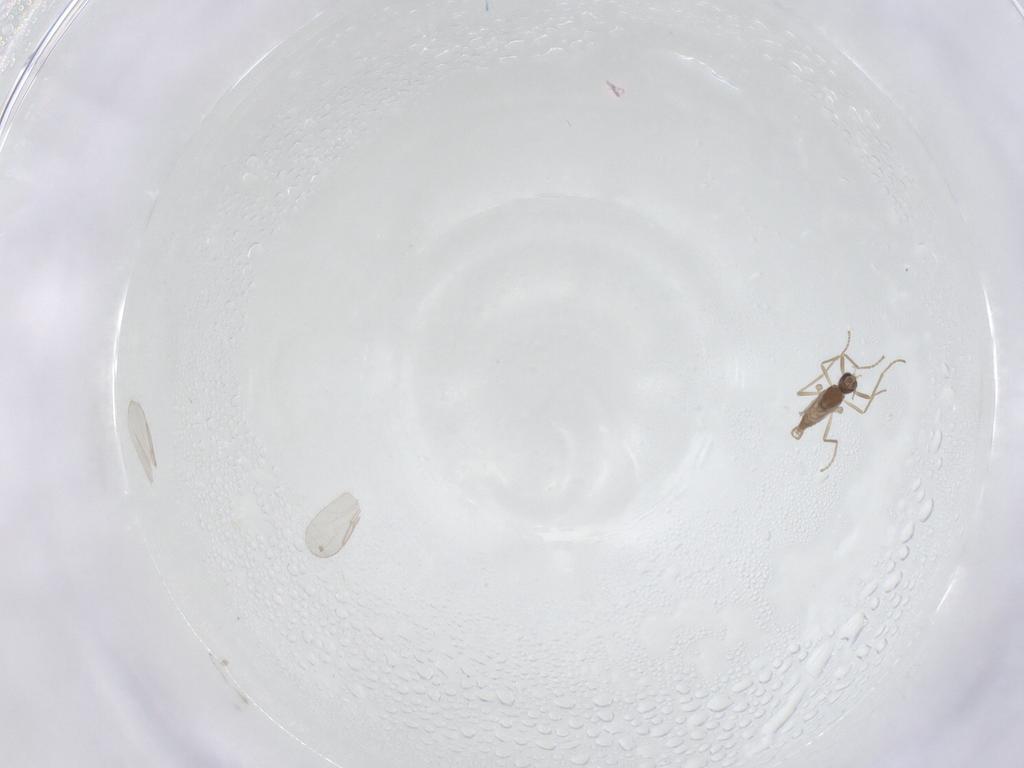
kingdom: Animalia
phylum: Arthropoda
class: Insecta
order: Diptera
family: Cecidomyiidae
